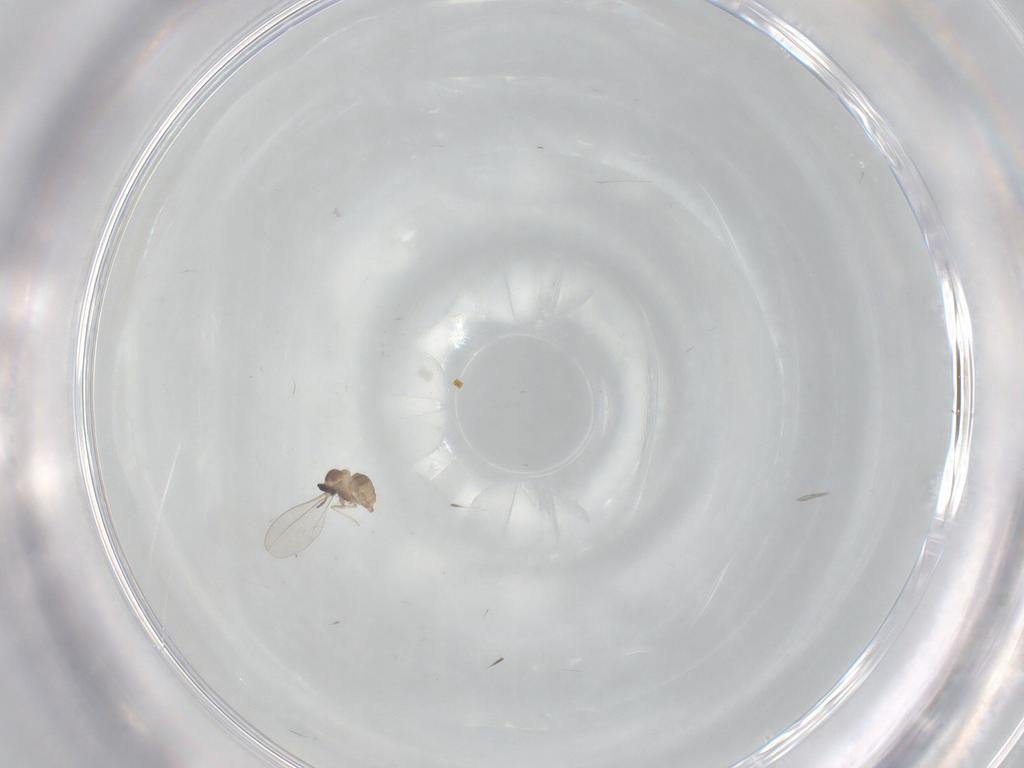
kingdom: Animalia
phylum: Arthropoda
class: Insecta
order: Diptera
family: Cecidomyiidae
